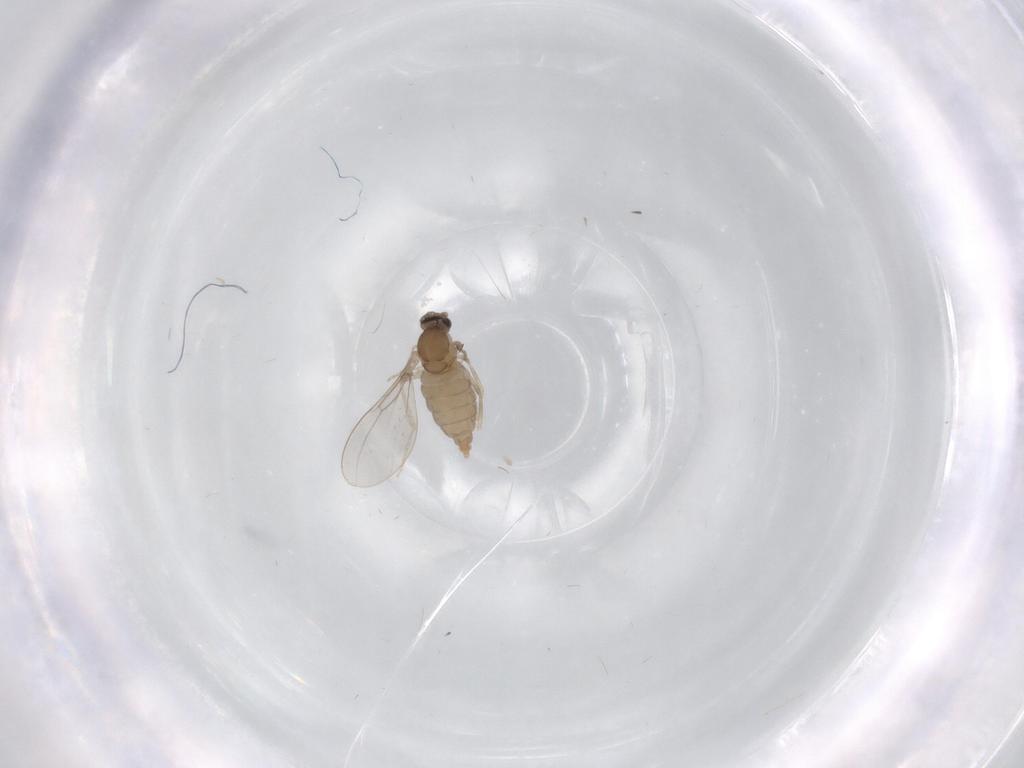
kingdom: Animalia
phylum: Arthropoda
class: Insecta
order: Diptera
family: Cecidomyiidae
